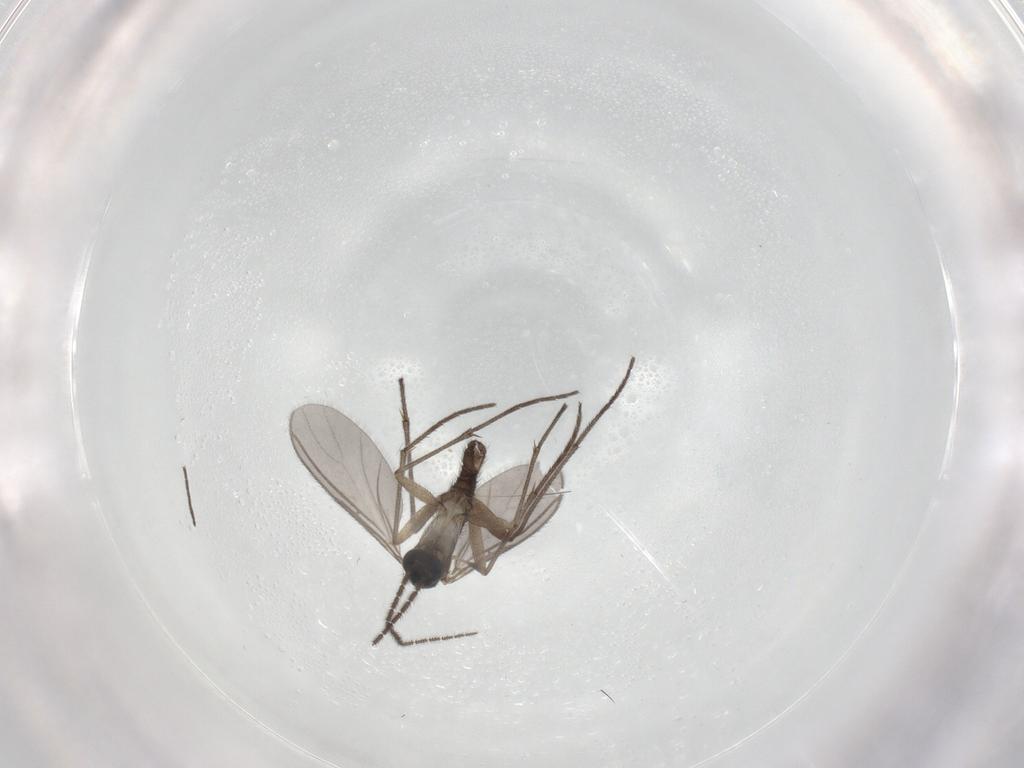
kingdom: Animalia
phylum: Arthropoda
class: Insecta
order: Diptera
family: Sciaridae
